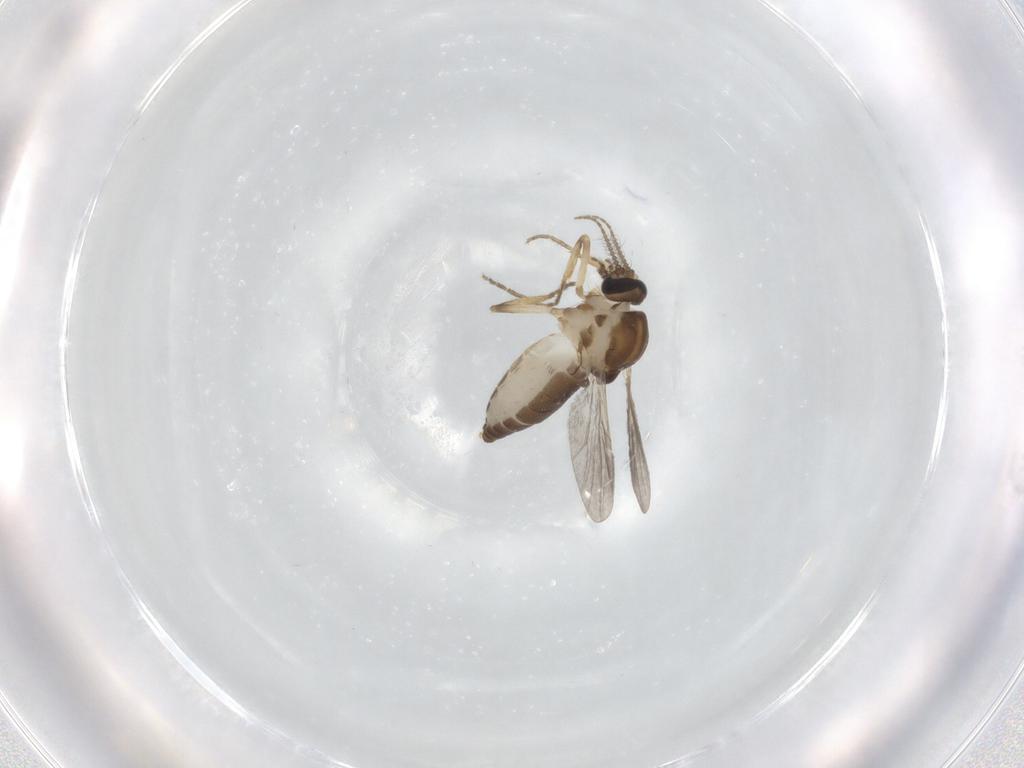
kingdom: Animalia
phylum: Arthropoda
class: Insecta
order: Diptera
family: Ceratopogonidae
